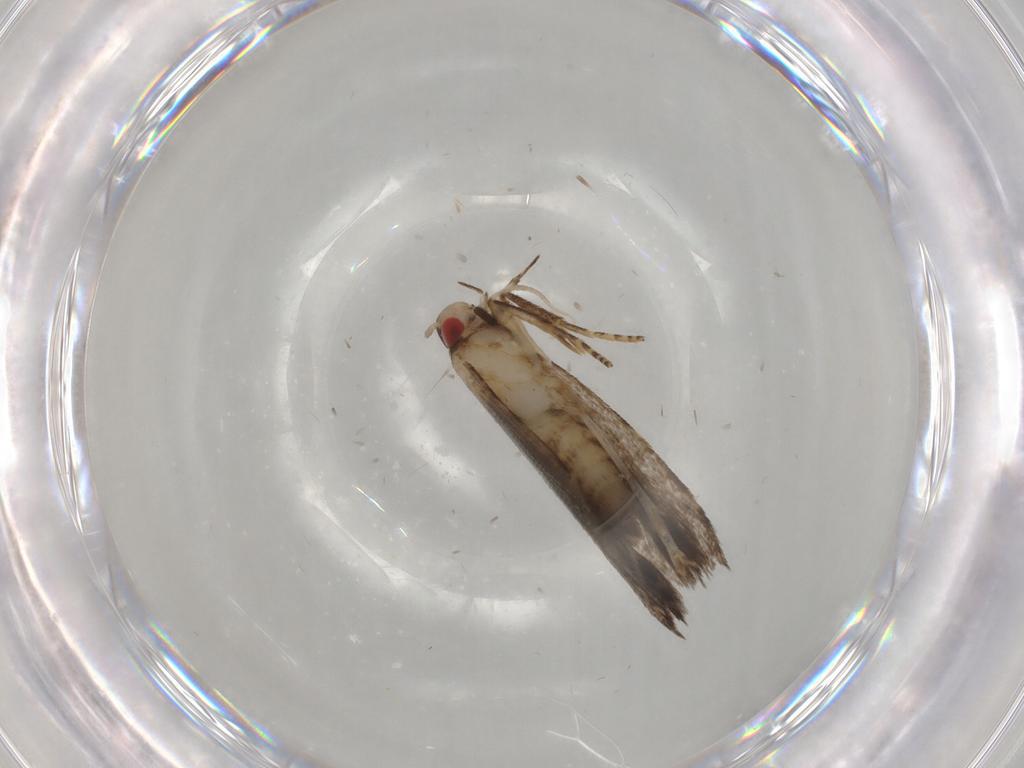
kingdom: Animalia
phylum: Arthropoda
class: Insecta
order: Lepidoptera
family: Gelechiidae
